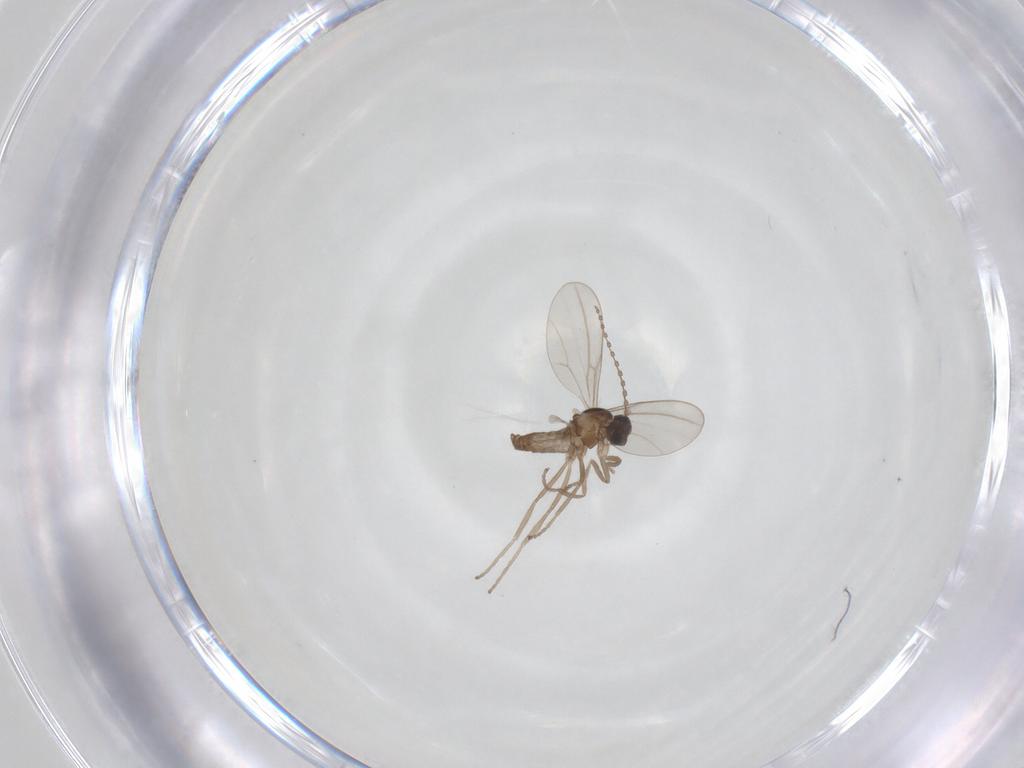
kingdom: Animalia
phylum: Arthropoda
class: Insecta
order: Diptera
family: Cecidomyiidae
